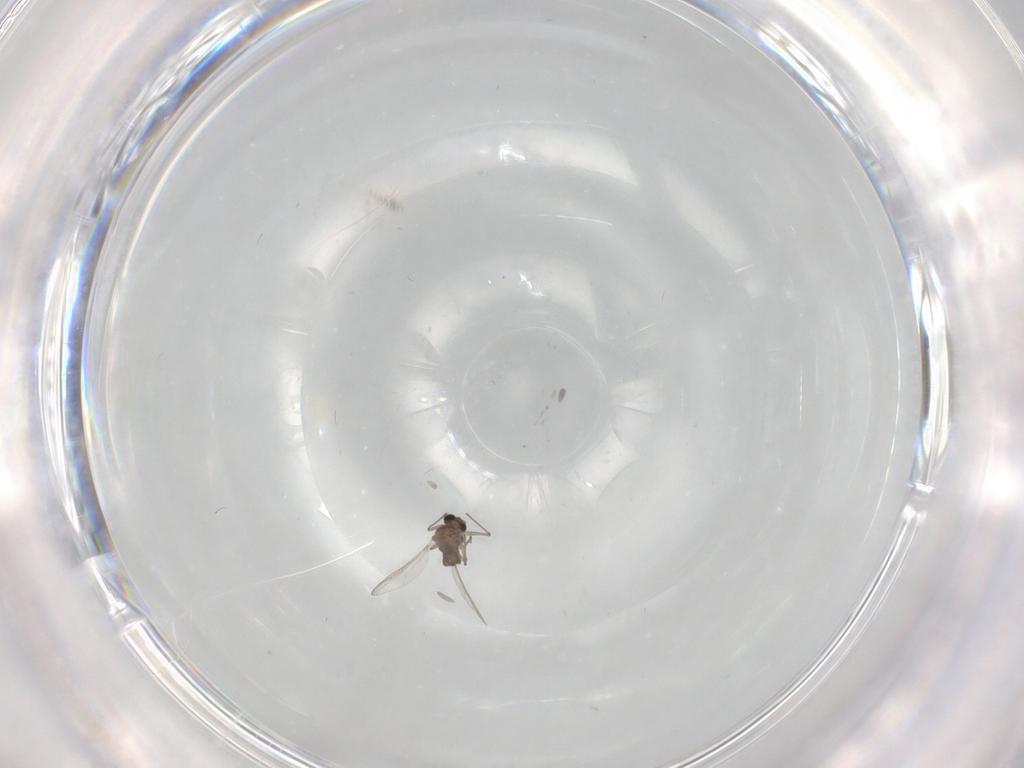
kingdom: Animalia
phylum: Arthropoda
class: Insecta
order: Diptera
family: Chironomidae
